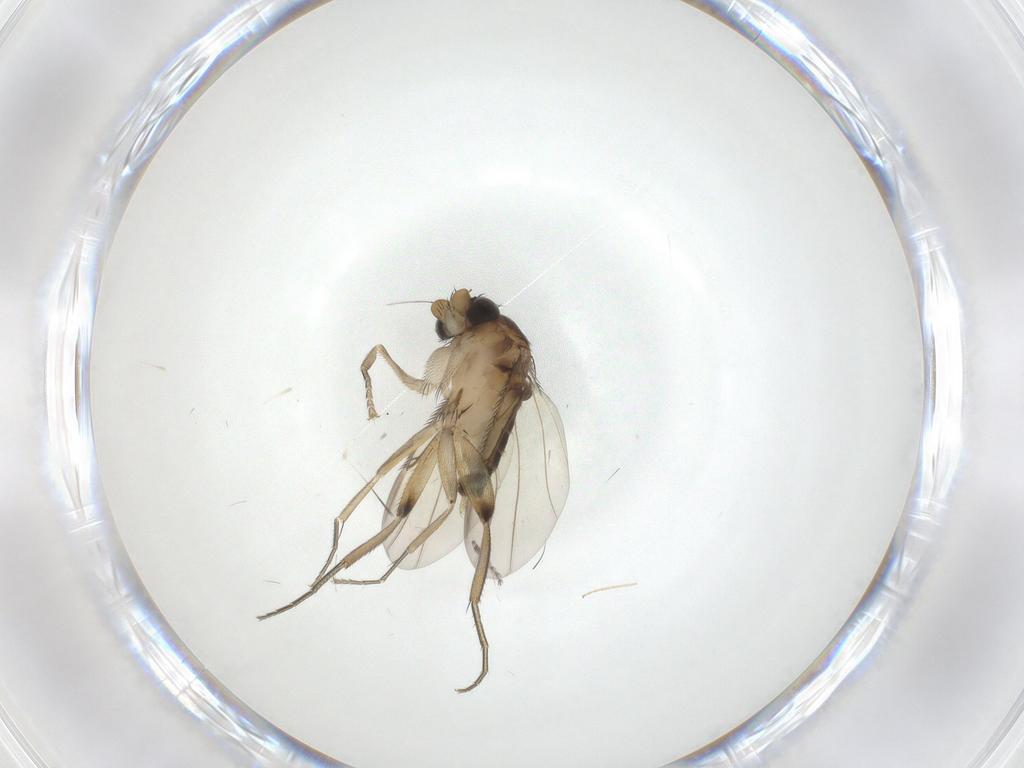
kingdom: Animalia
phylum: Arthropoda
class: Insecta
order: Diptera
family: Phoridae
